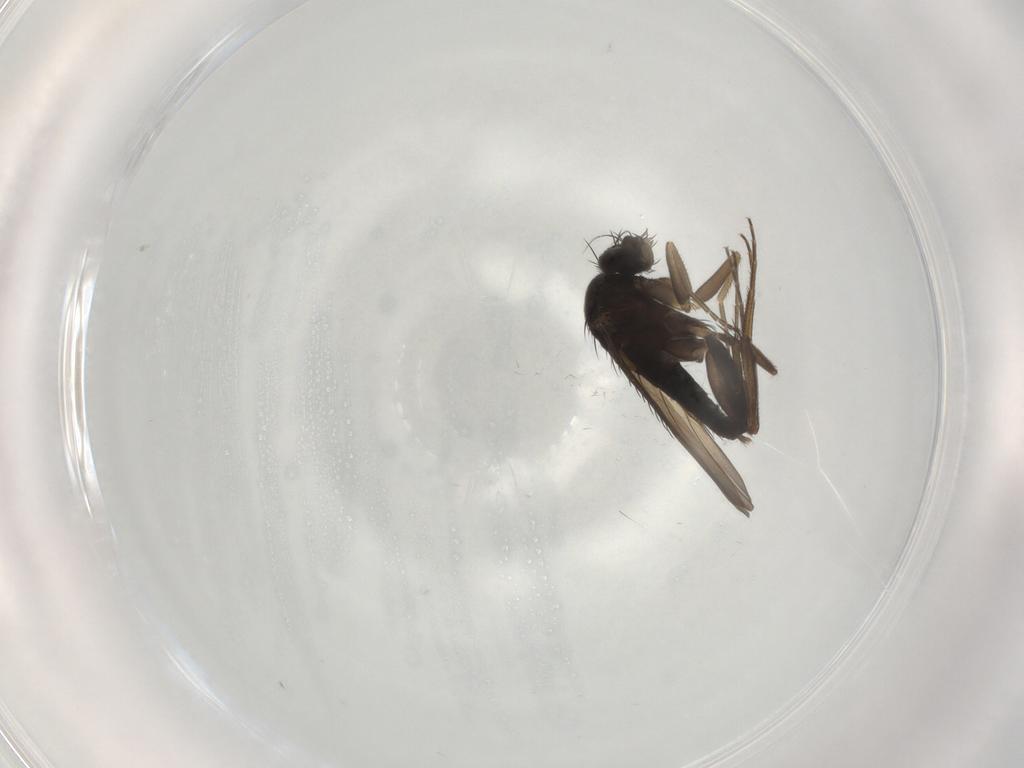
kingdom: Animalia
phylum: Arthropoda
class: Insecta
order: Diptera
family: Phoridae
